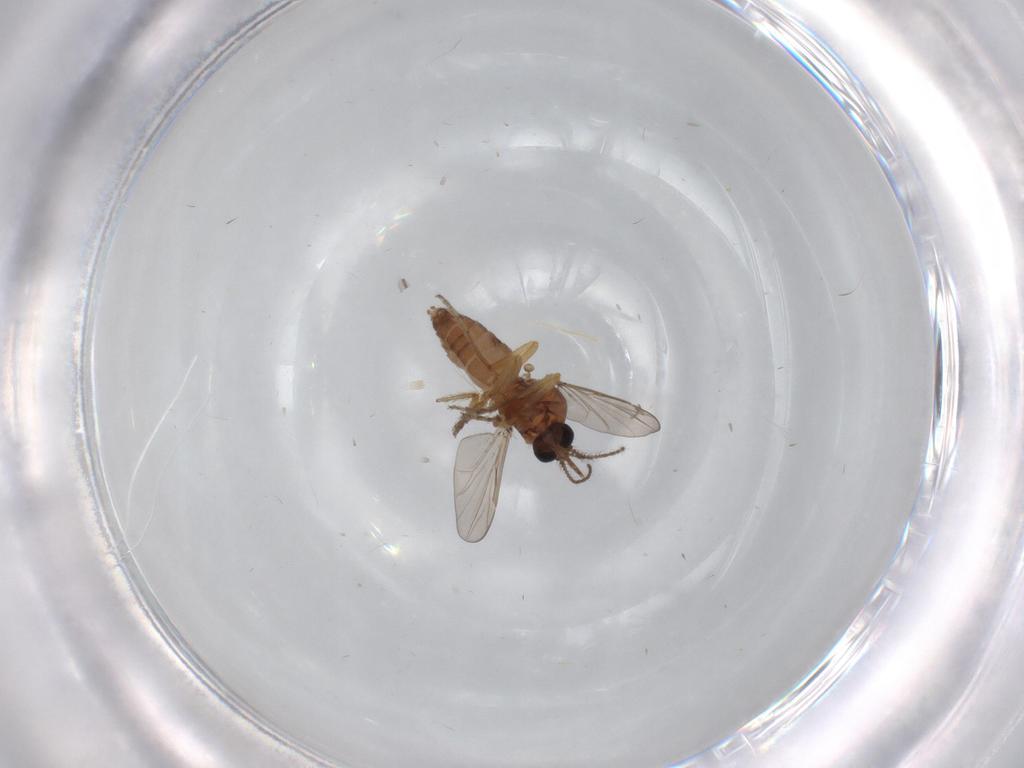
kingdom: Animalia
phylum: Arthropoda
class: Insecta
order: Diptera
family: Ceratopogonidae
